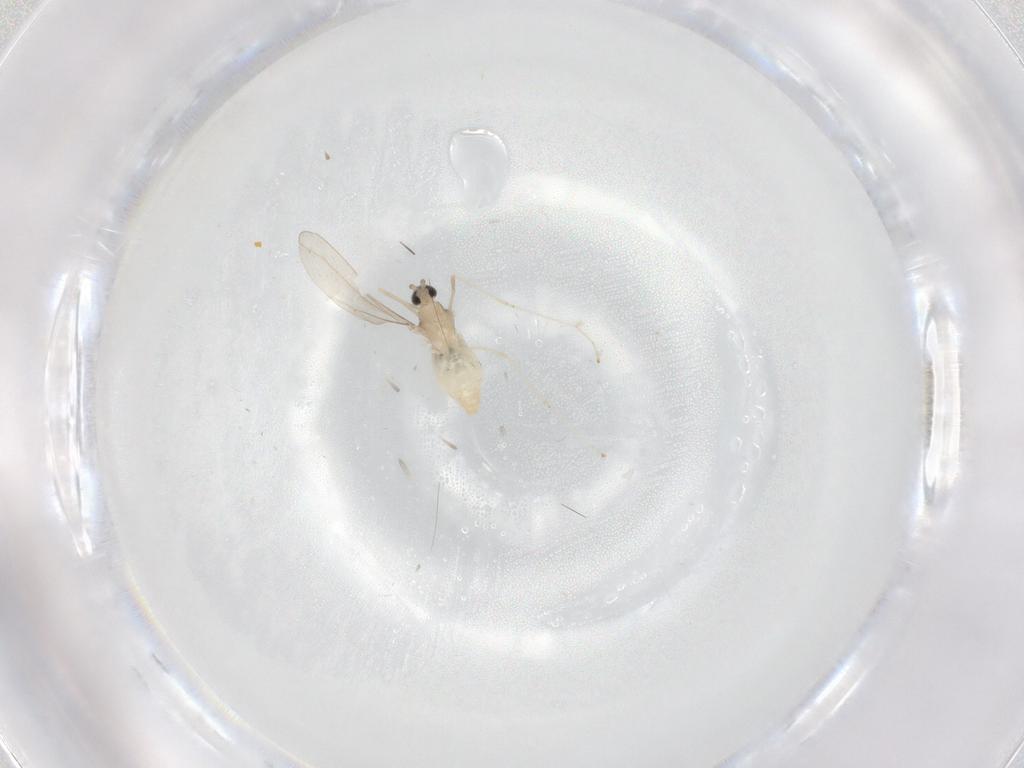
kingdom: Animalia
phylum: Arthropoda
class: Insecta
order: Diptera
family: Cecidomyiidae
